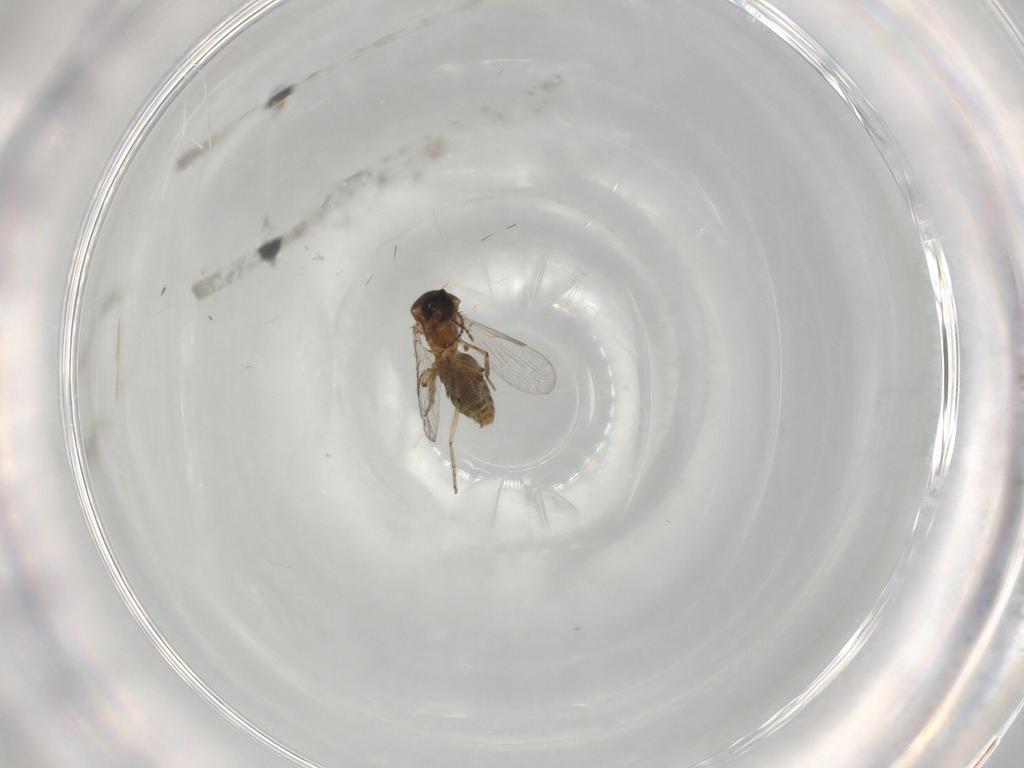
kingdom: Animalia
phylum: Arthropoda
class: Insecta
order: Diptera
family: Ceratopogonidae
